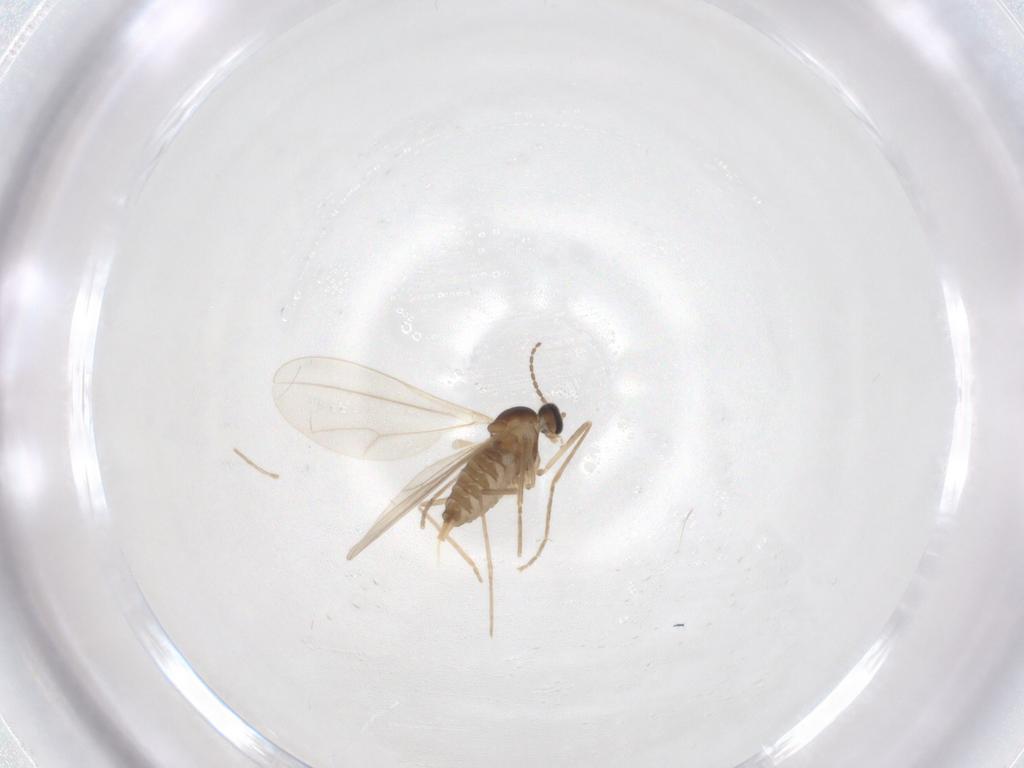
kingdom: Animalia
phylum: Arthropoda
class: Insecta
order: Diptera
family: Cecidomyiidae
